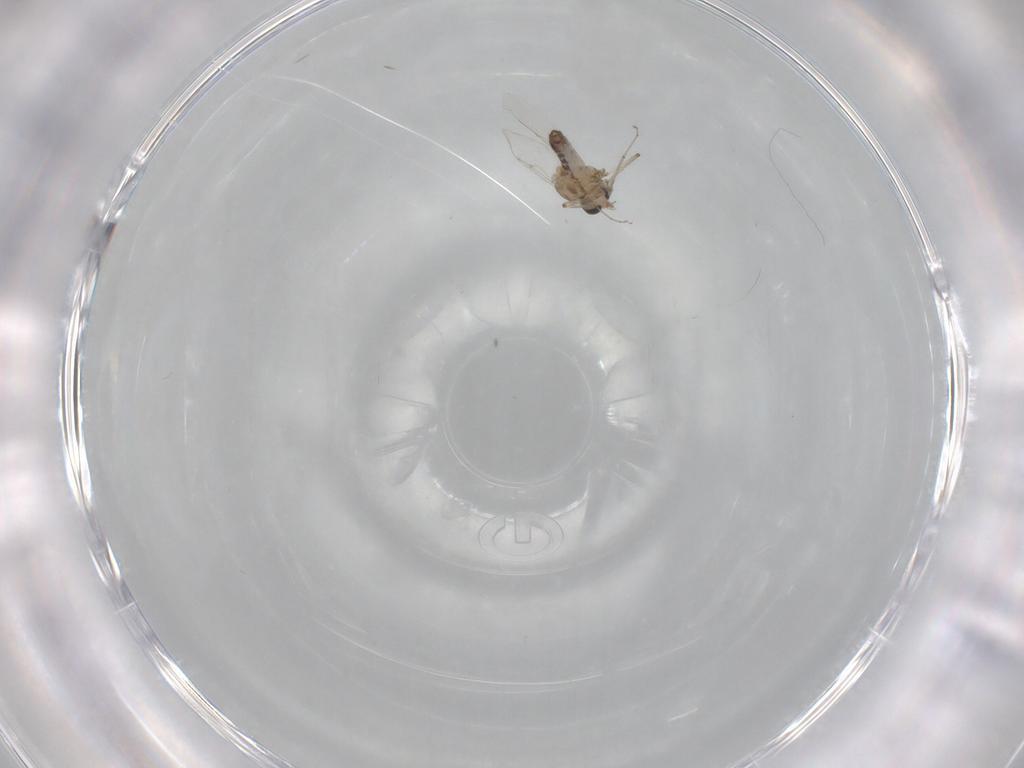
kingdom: Animalia
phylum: Arthropoda
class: Insecta
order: Diptera
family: Ceratopogonidae
